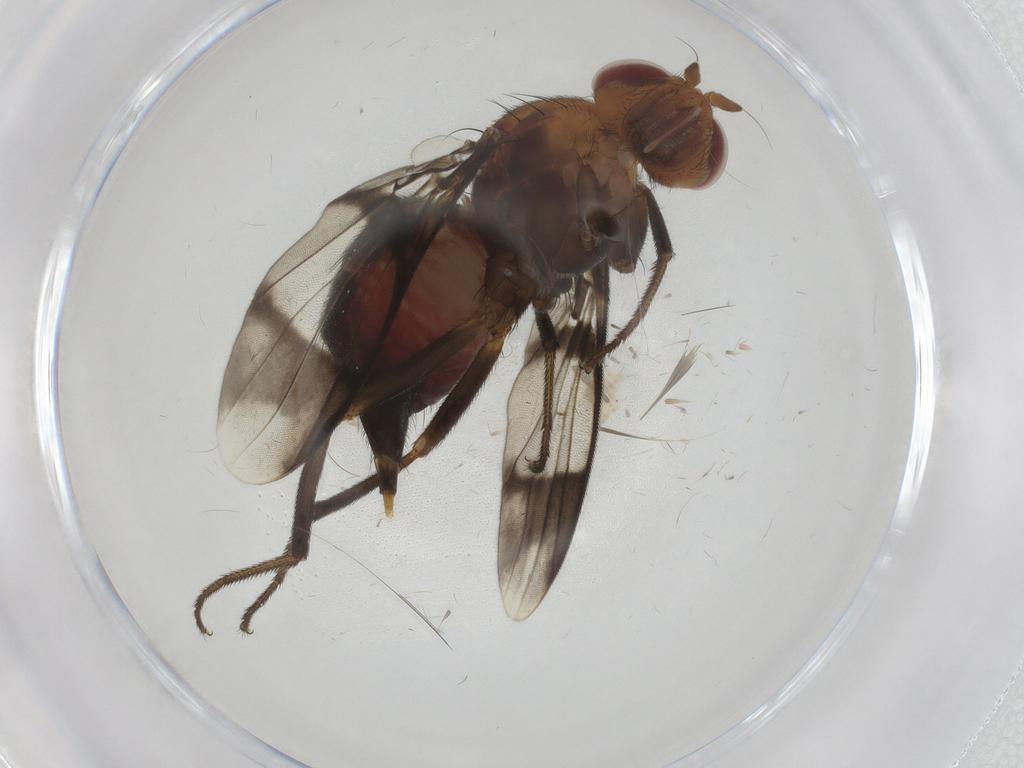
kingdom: Animalia
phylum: Arthropoda
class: Insecta
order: Diptera
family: Richardiidae
